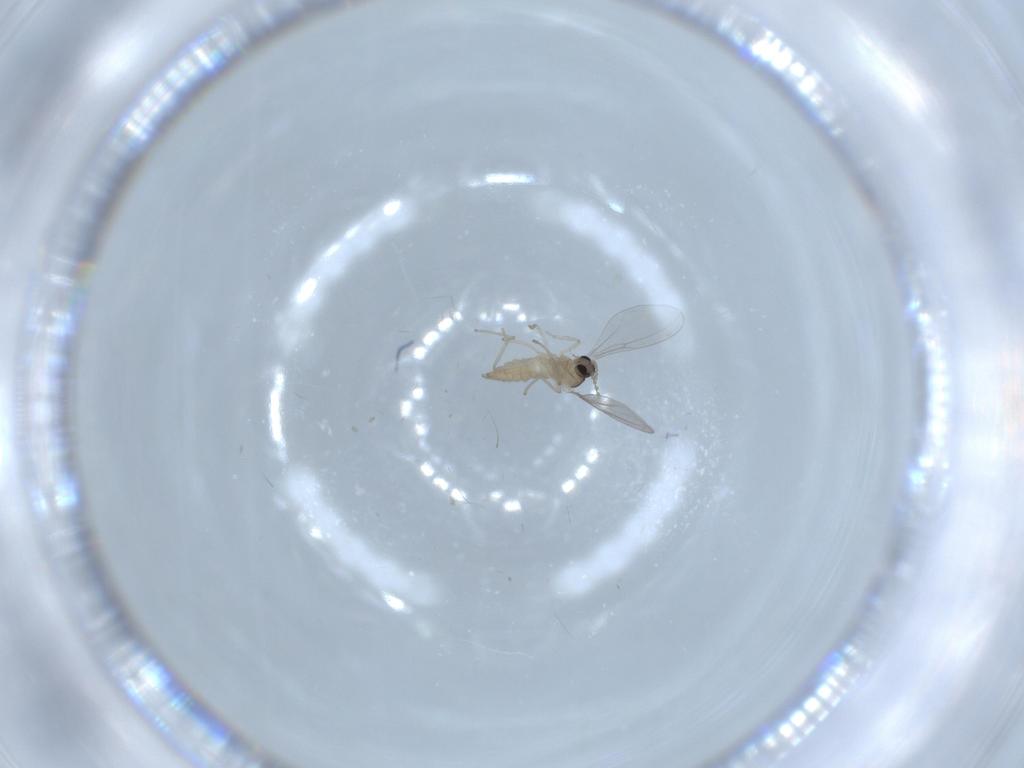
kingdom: Animalia
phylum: Arthropoda
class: Insecta
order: Diptera
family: Cecidomyiidae
